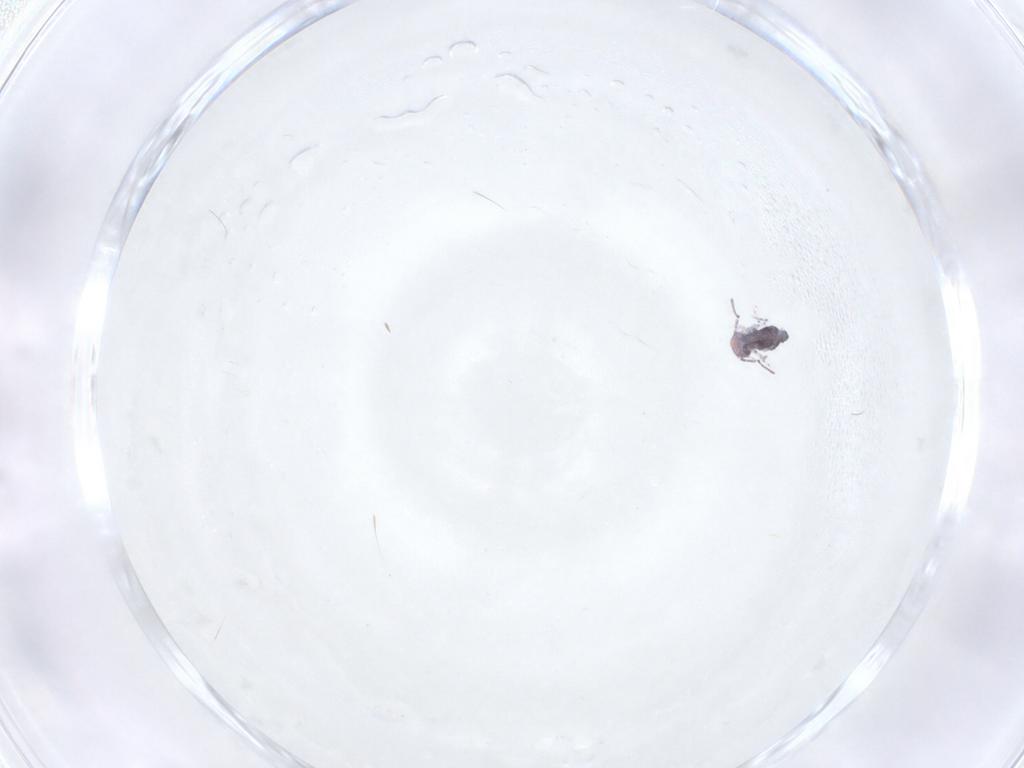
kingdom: Animalia
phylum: Arthropoda
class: Collembola
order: Symphypleona
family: Bourletiellidae
